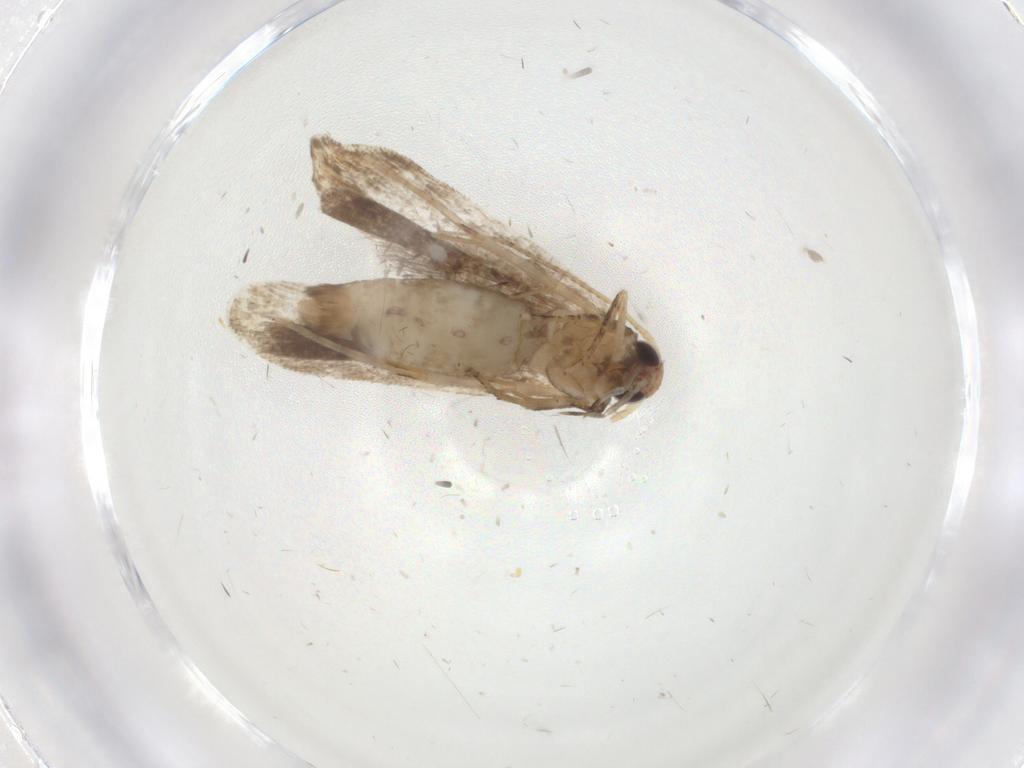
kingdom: Animalia
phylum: Arthropoda
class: Insecta
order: Lepidoptera
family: Gelechiidae
